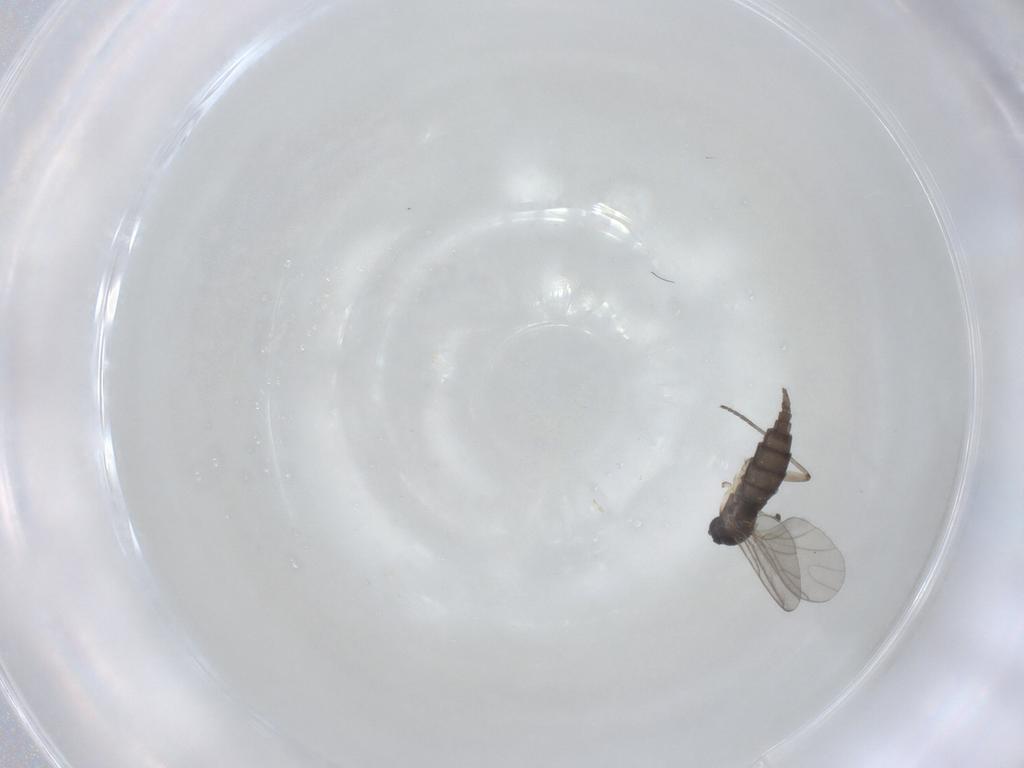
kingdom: Animalia
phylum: Arthropoda
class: Insecta
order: Diptera
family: Sciaridae
